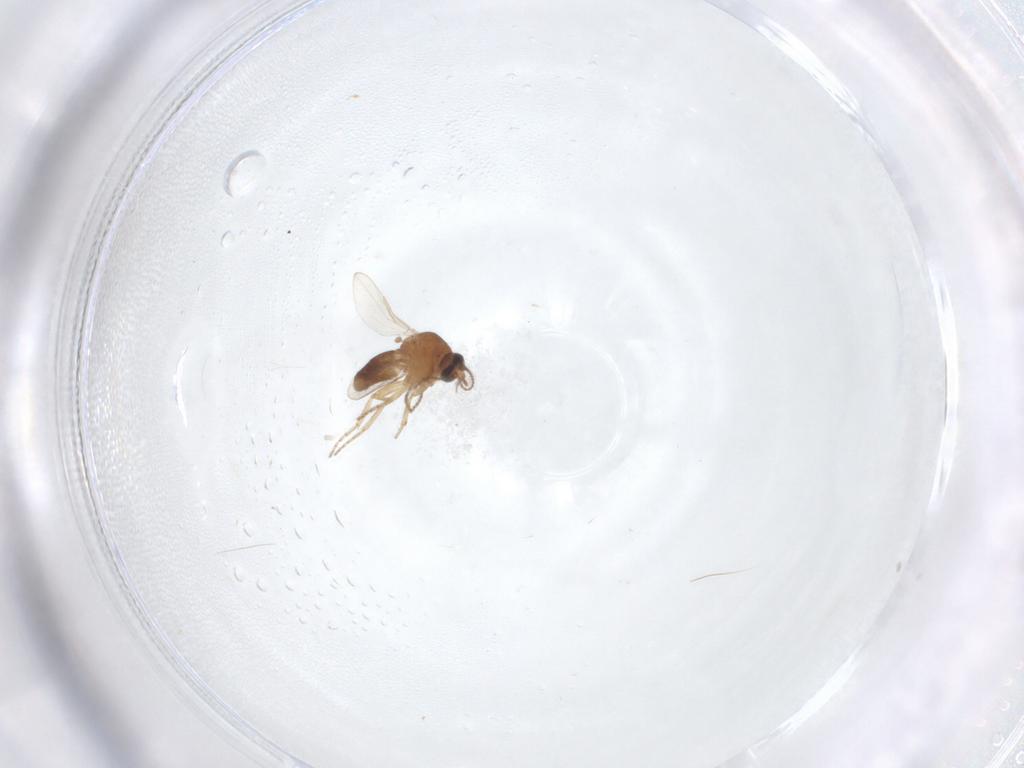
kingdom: Animalia
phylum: Arthropoda
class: Insecta
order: Diptera
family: Ceratopogonidae
